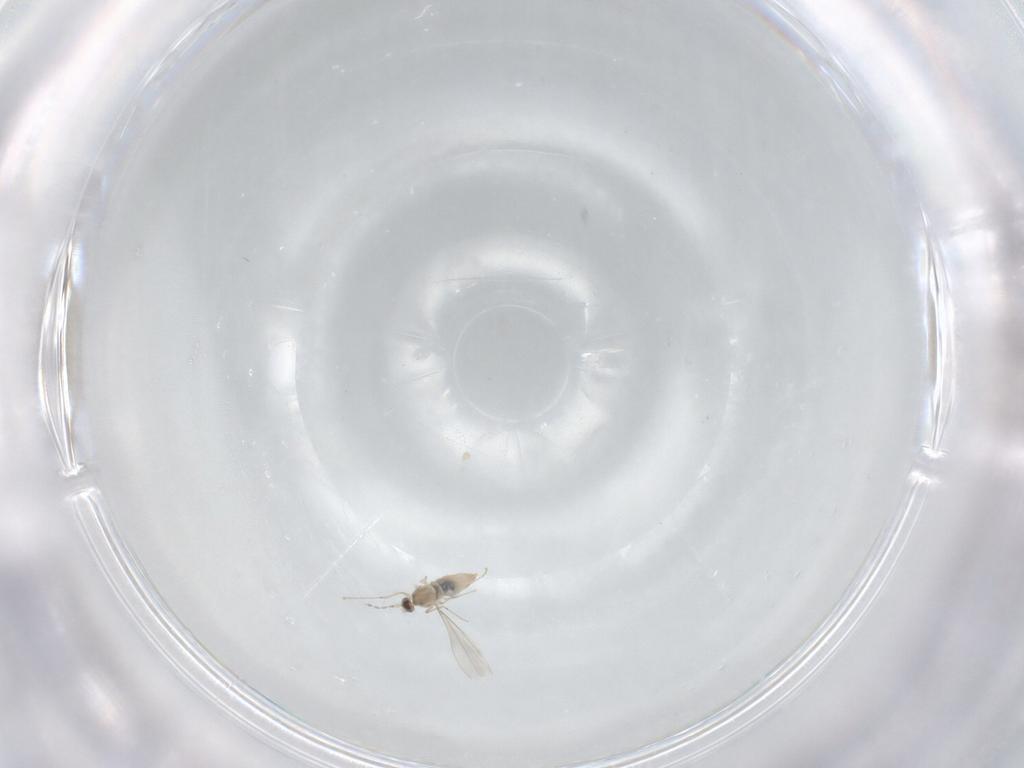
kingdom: Animalia
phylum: Arthropoda
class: Insecta
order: Diptera
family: Cecidomyiidae
